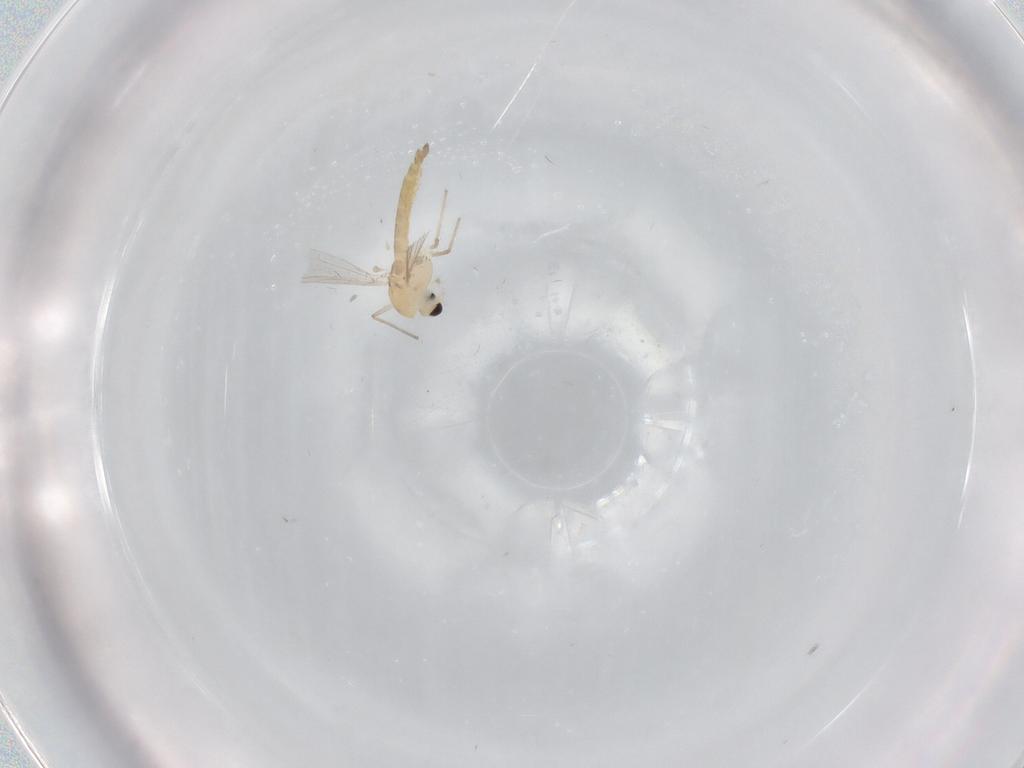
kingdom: Animalia
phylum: Arthropoda
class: Insecta
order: Diptera
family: Chironomidae
